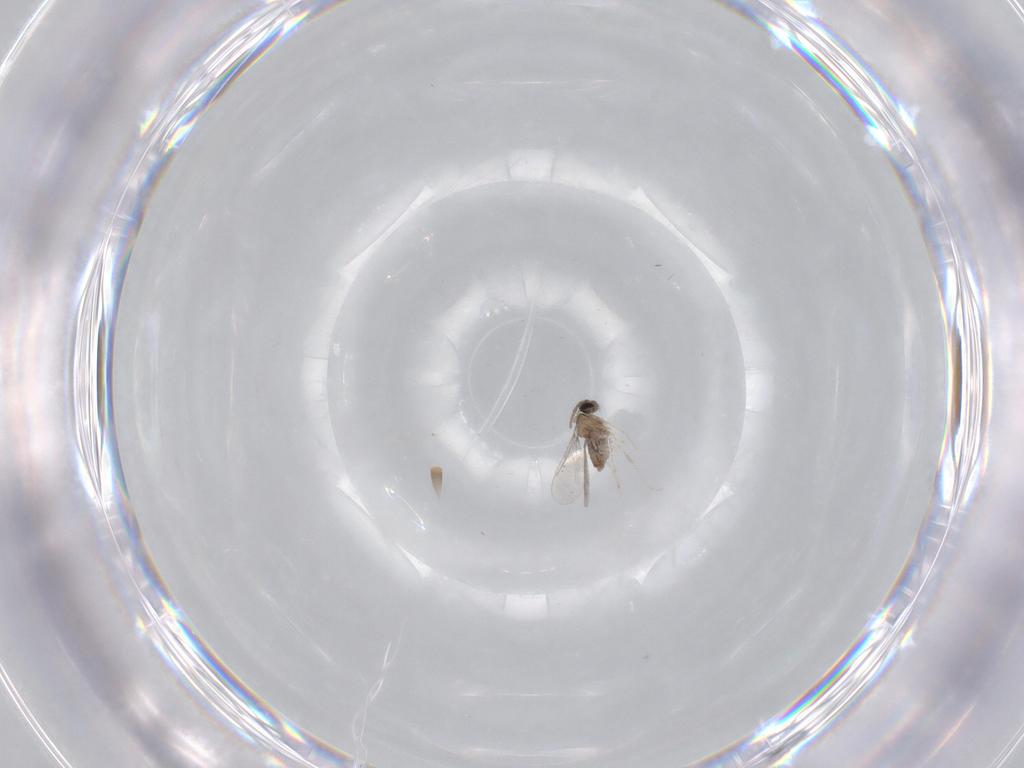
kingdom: Animalia
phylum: Arthropoda
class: Insecta
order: Diptera
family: Cecidomyiidae
